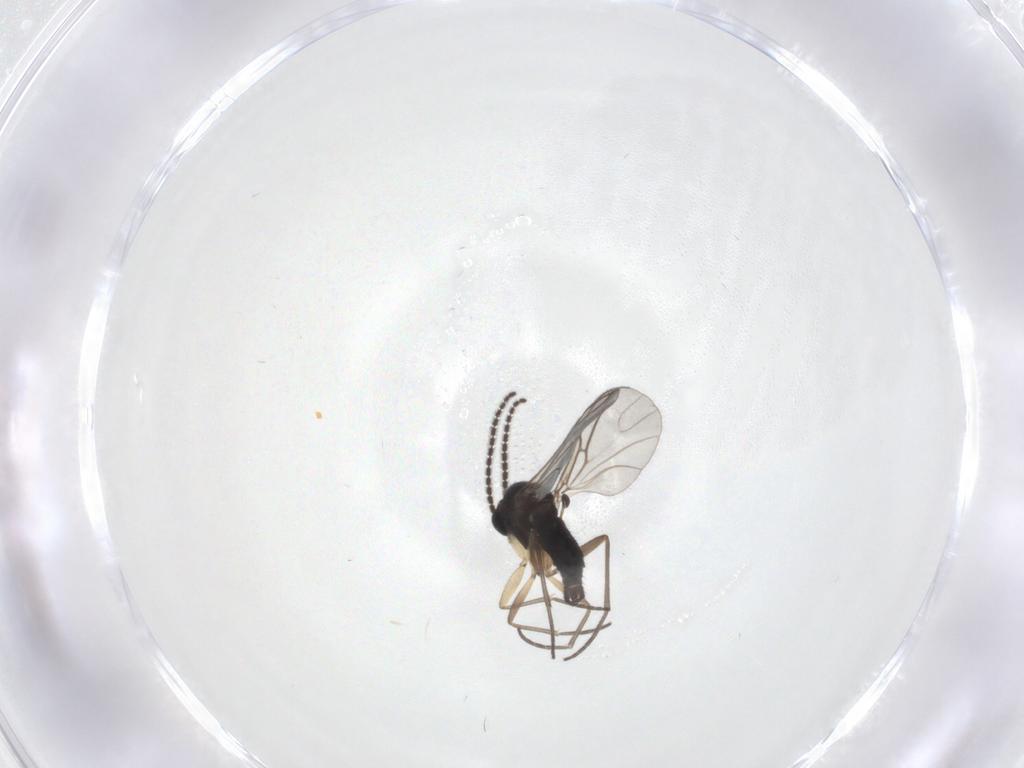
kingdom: Animalia
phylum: Arthropoda
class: Insecta
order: Diptera
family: Sciaridae
